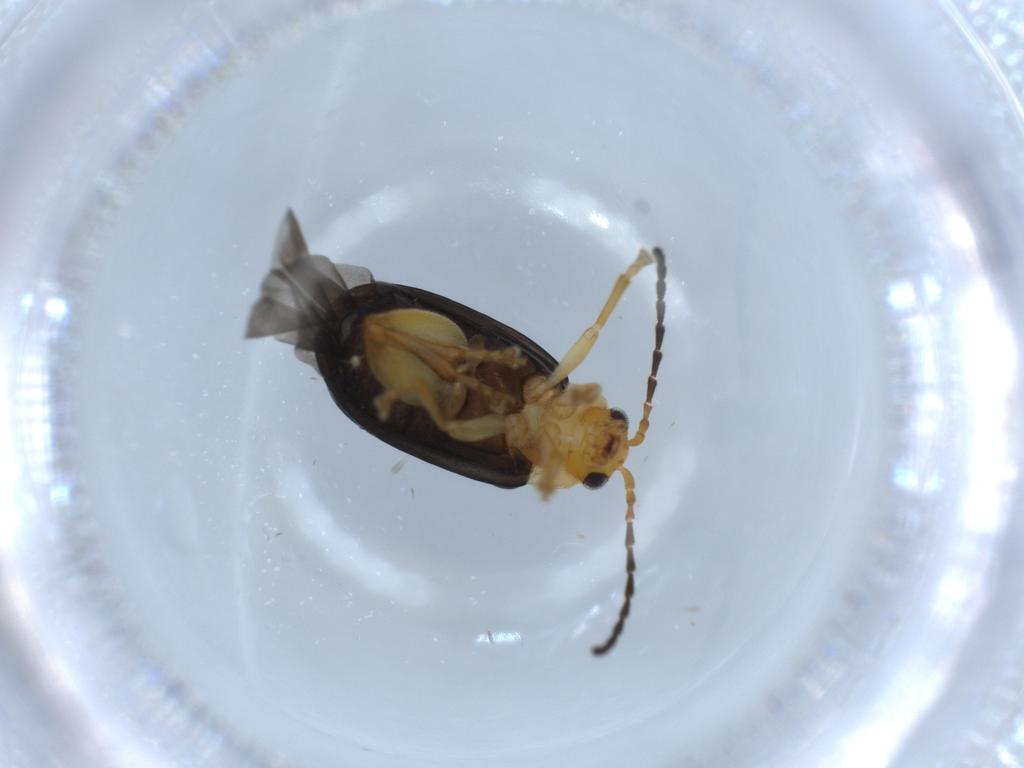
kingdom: Animalia
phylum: Arthropoda
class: Insecta
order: Coleoptera
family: Chrysomelidae
